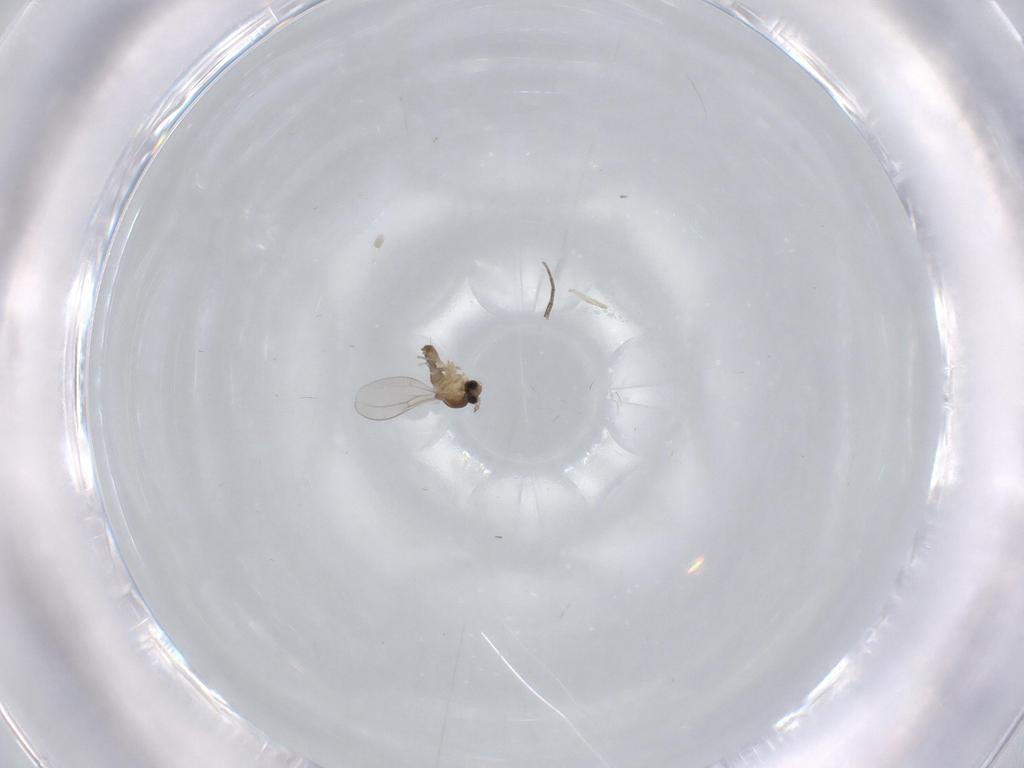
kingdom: Animalia
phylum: Arthropoda
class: Insecta
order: Diptera
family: Cecidomyiidae
